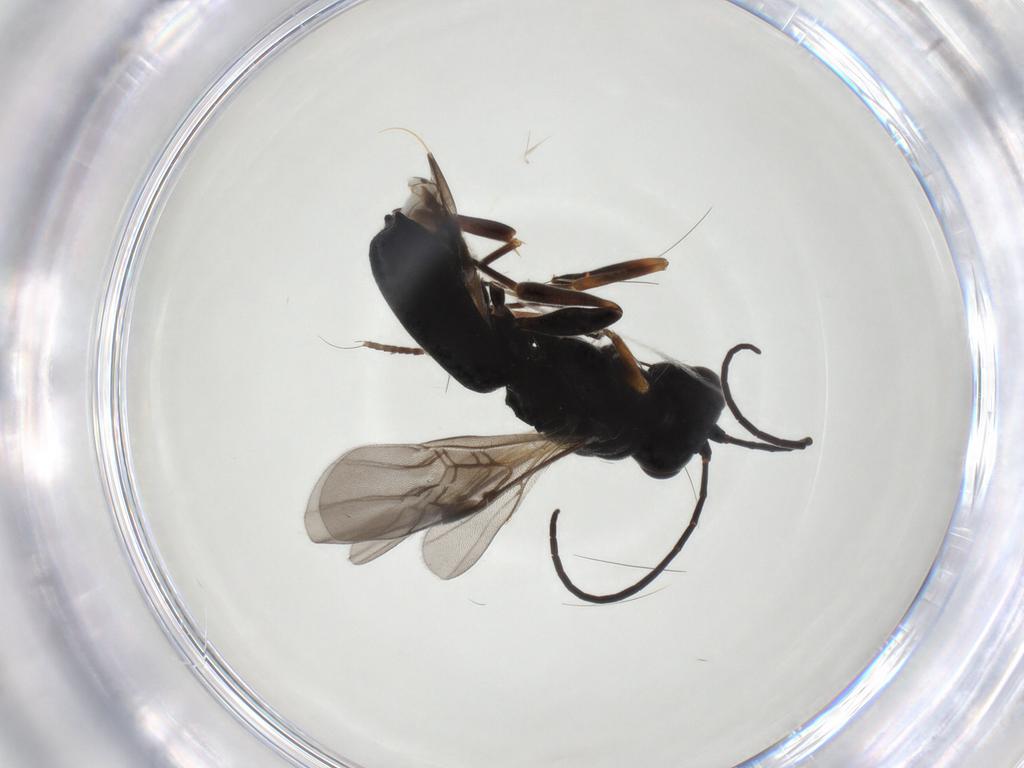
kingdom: Animalia
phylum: Arthropoda
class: Insecta
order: Hymenoptera
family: Braconidae
